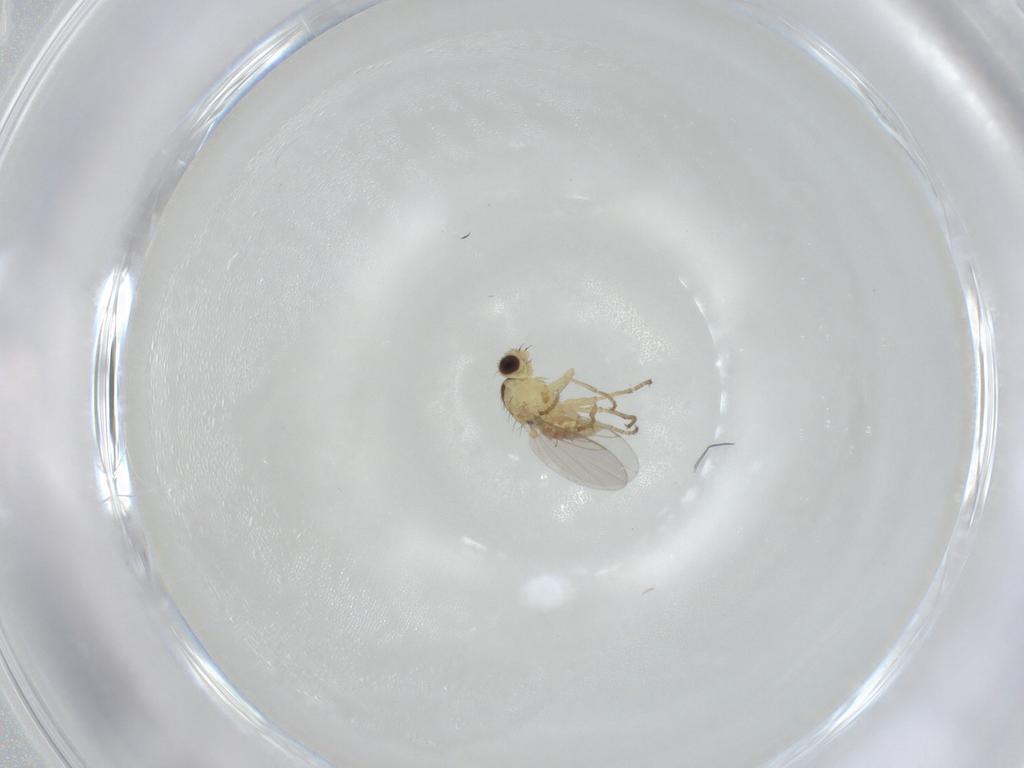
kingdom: Animalia
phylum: Arthropoda
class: Insecta
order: Diptera
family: Agromyzidae
